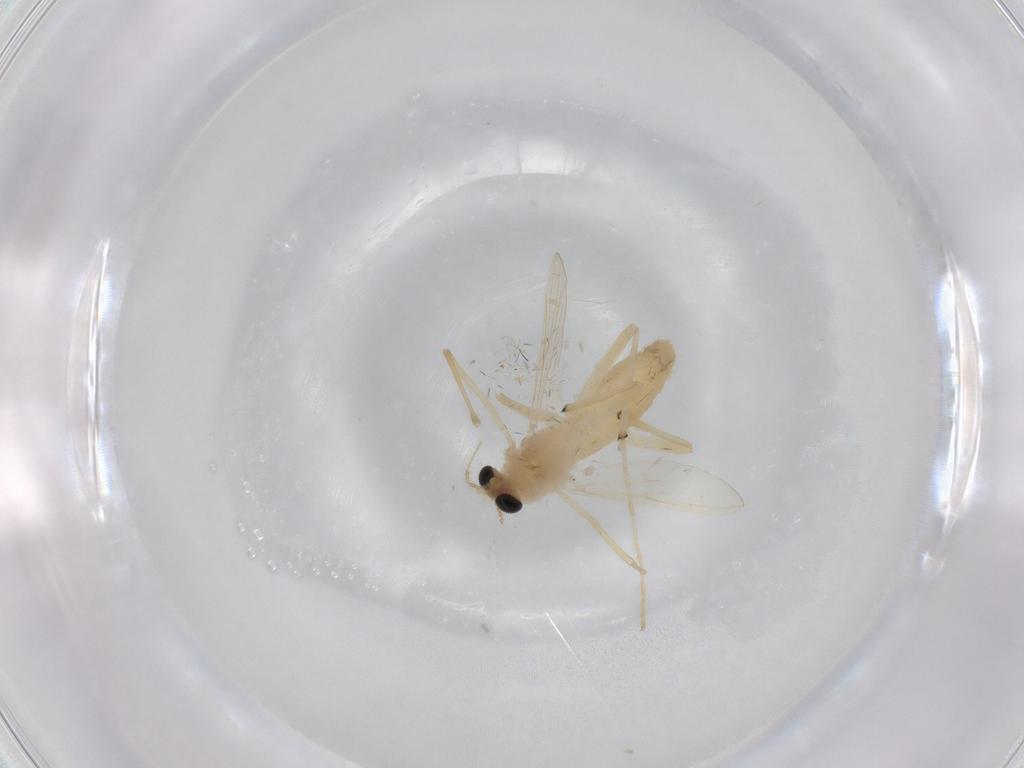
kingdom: Animalia
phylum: Arthropoda
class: Insecta
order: Diptera
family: Chironomidae
